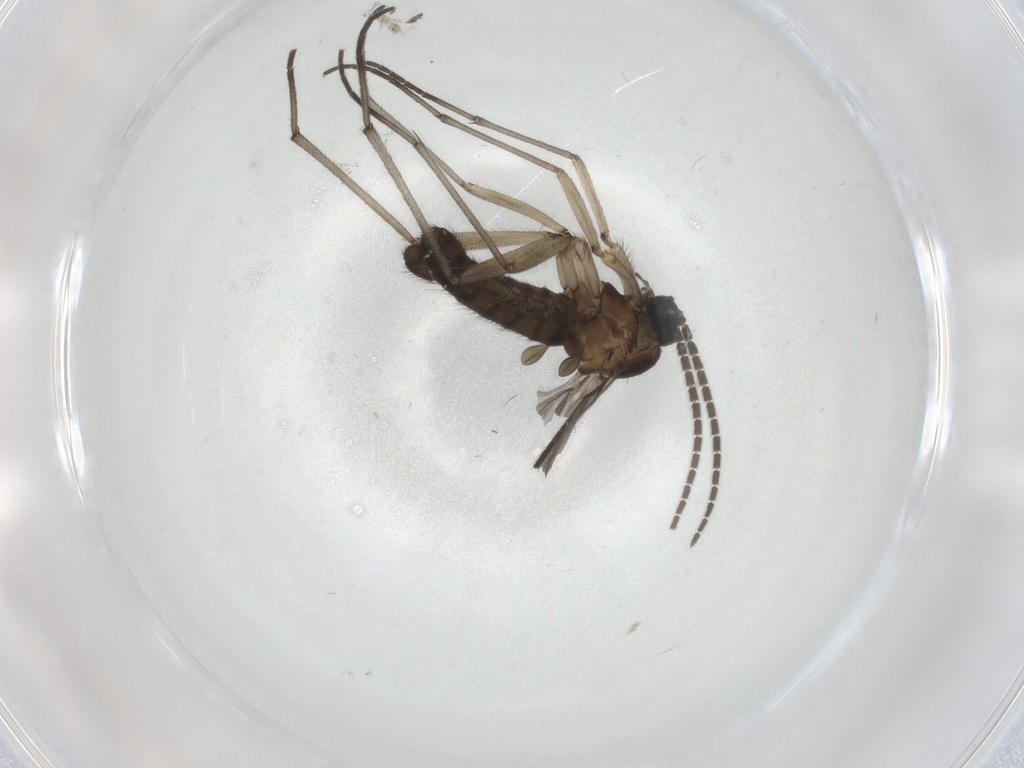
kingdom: Animalia
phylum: Arthropoda
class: Insecta
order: Diptera
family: Sciaridae
